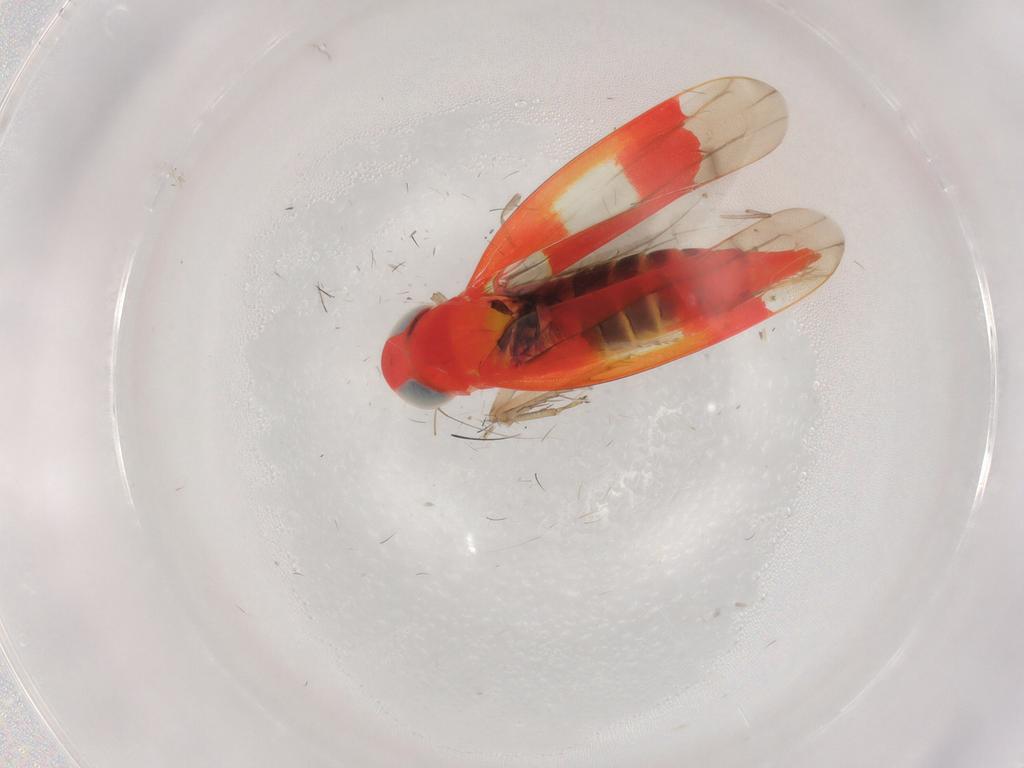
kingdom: Animalia
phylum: Arthropoda
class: Insecta
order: Hemiptera
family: Cicadellidae
